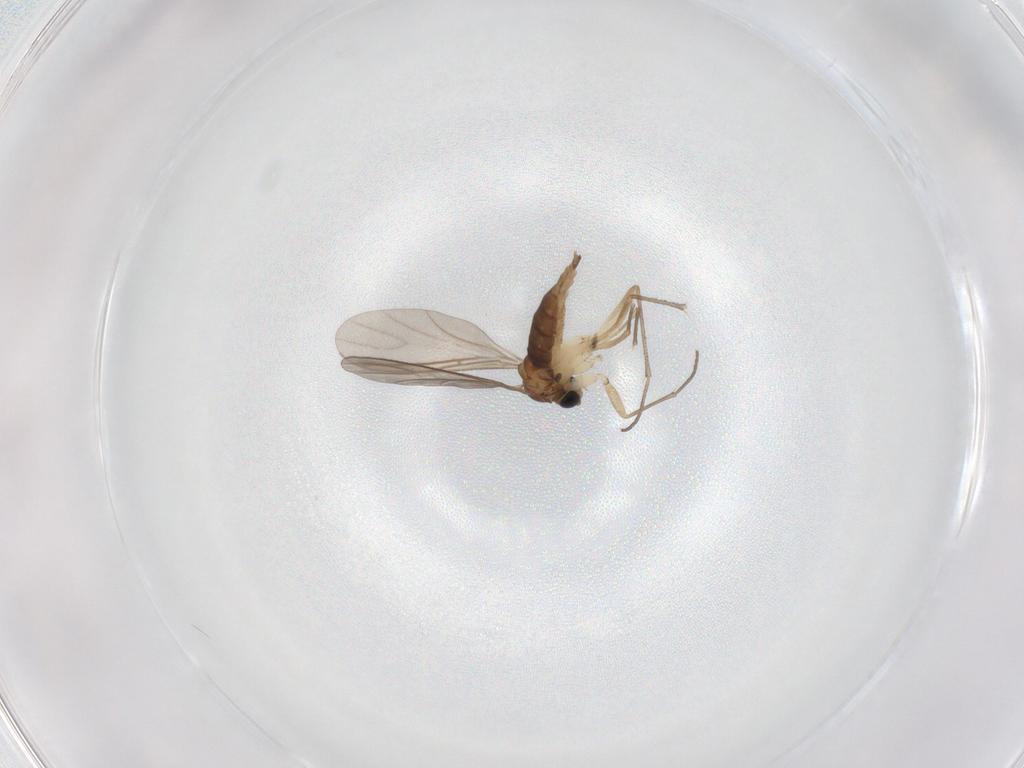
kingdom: Animalia
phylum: Arthropoda
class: Insecta
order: Diptera
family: Sciaridae
